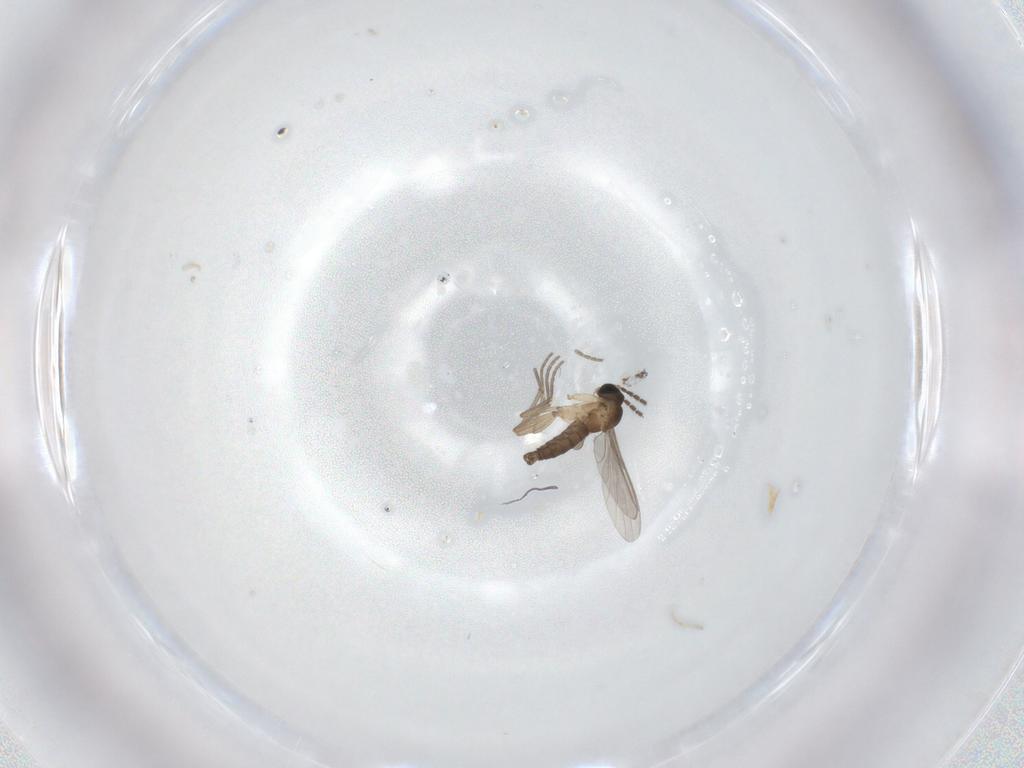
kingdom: Animalia
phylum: Arthropoda
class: Insecta
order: Diptera
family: Sciaridae
